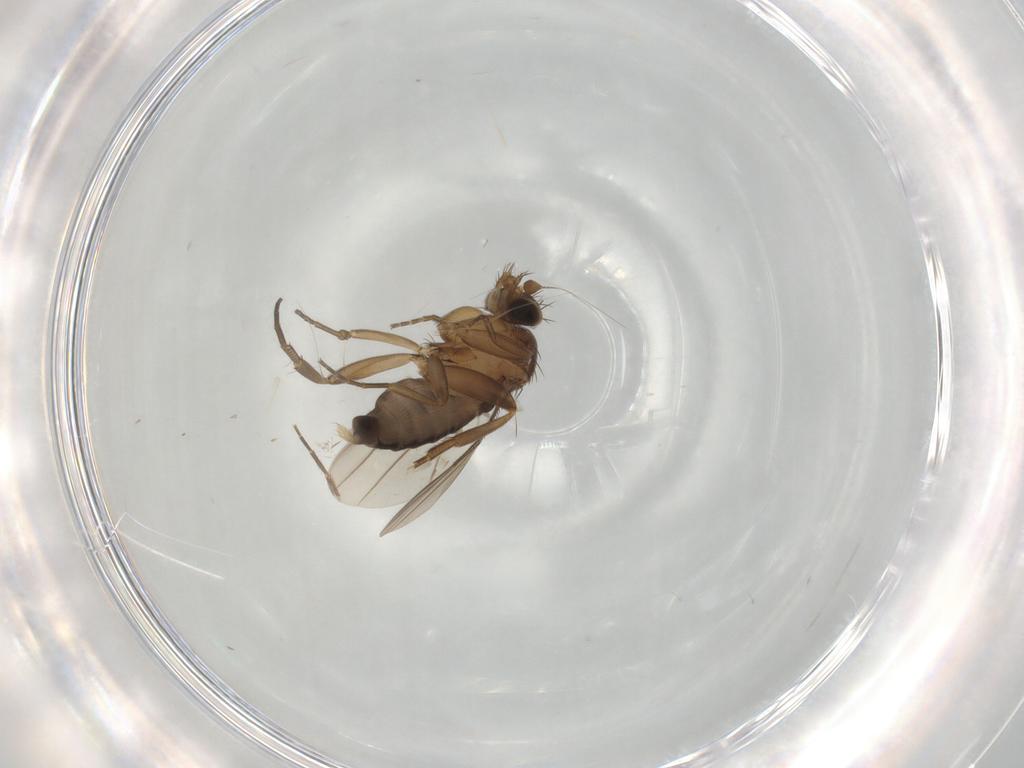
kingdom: Animalia
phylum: Arthropoda
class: Insecta
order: Diptera
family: Phoridae
